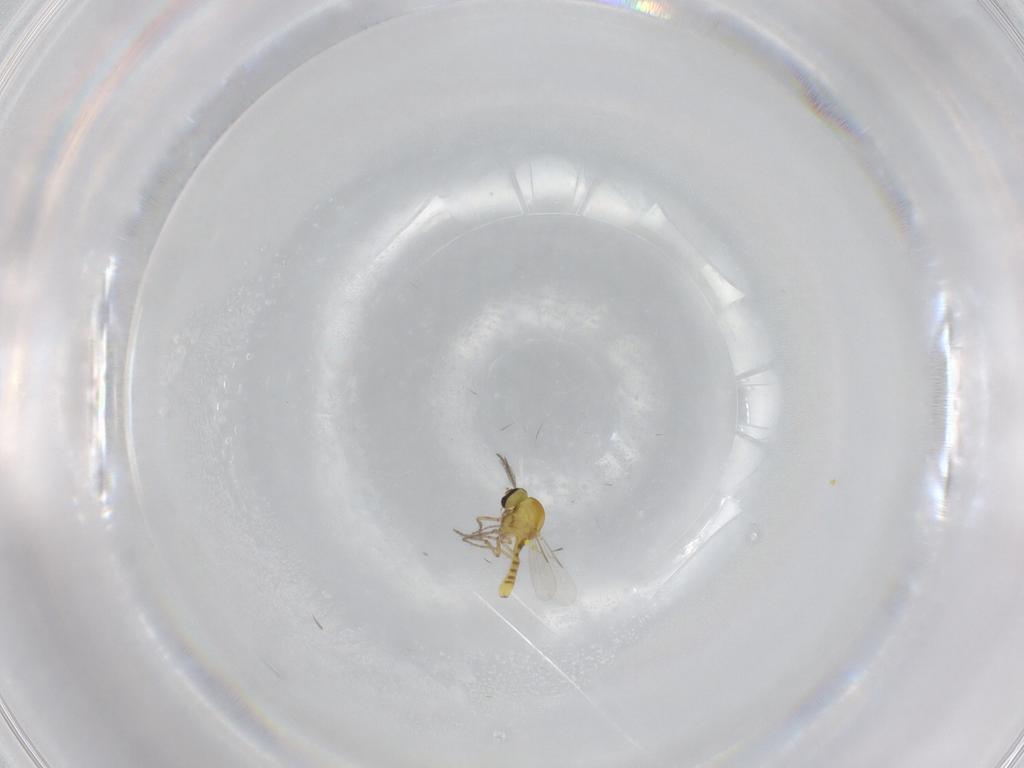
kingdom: Animalia
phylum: Arthropoda
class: Insecta
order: Diptera
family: Ceratopogonidae
